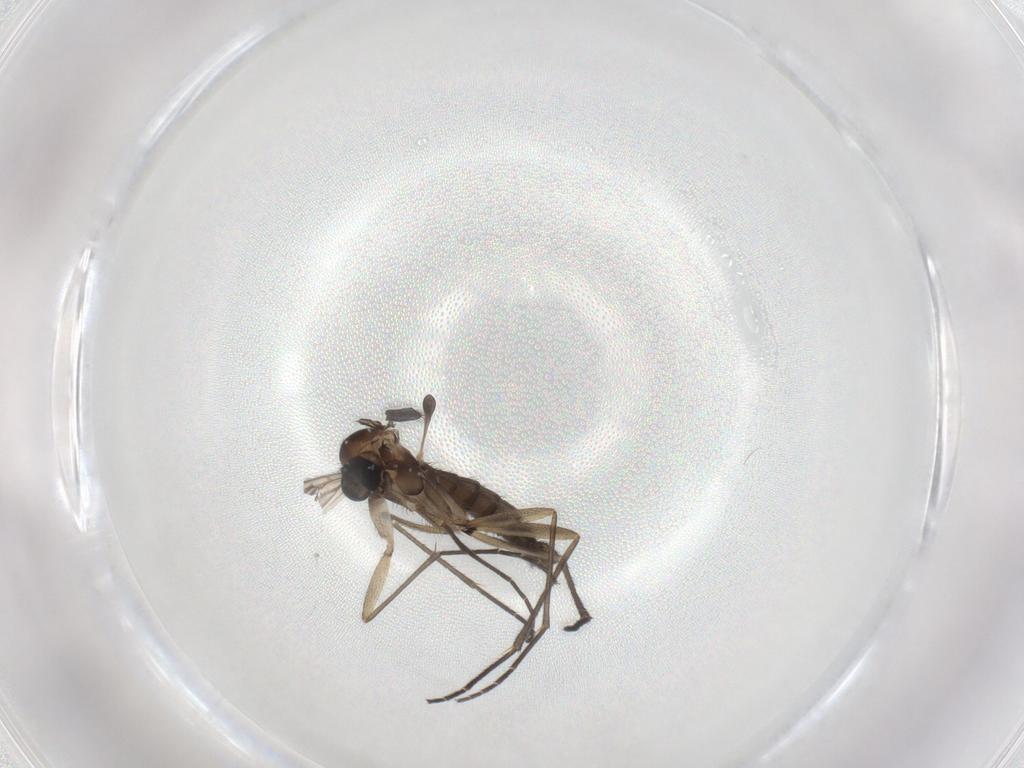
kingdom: Animalia
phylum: Arthropoda
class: Insecta
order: Diptera
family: Sciaridae
